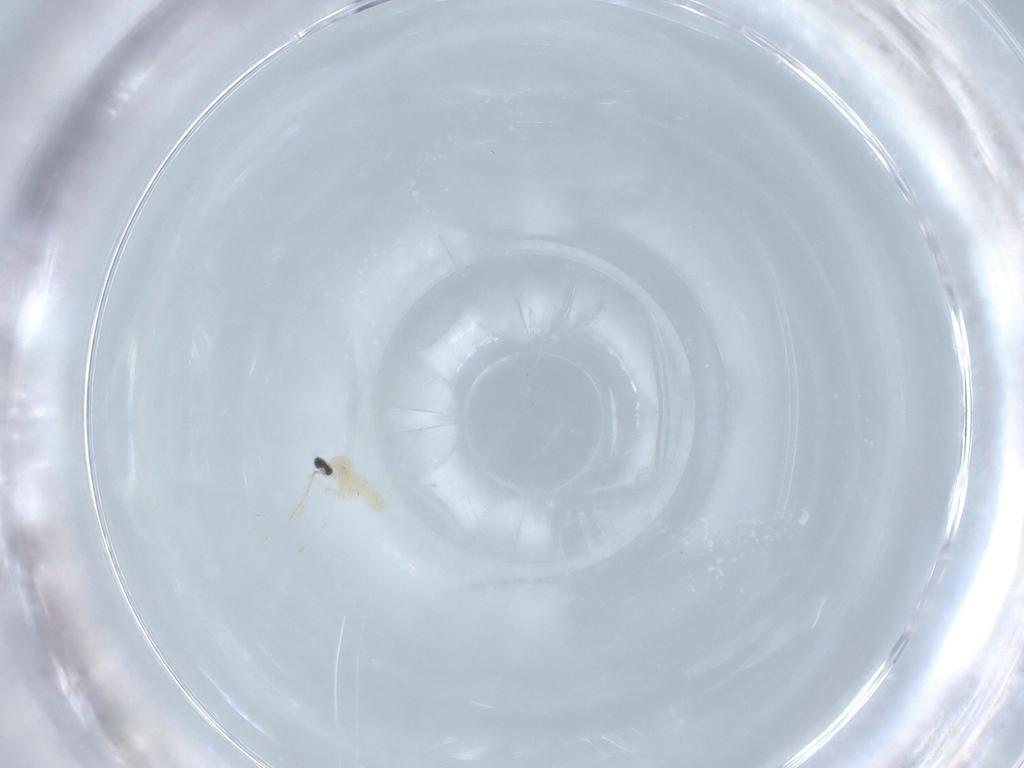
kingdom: Animalia
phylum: Arthropoda
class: Insecta
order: Diptera
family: Cecidomyiidae
